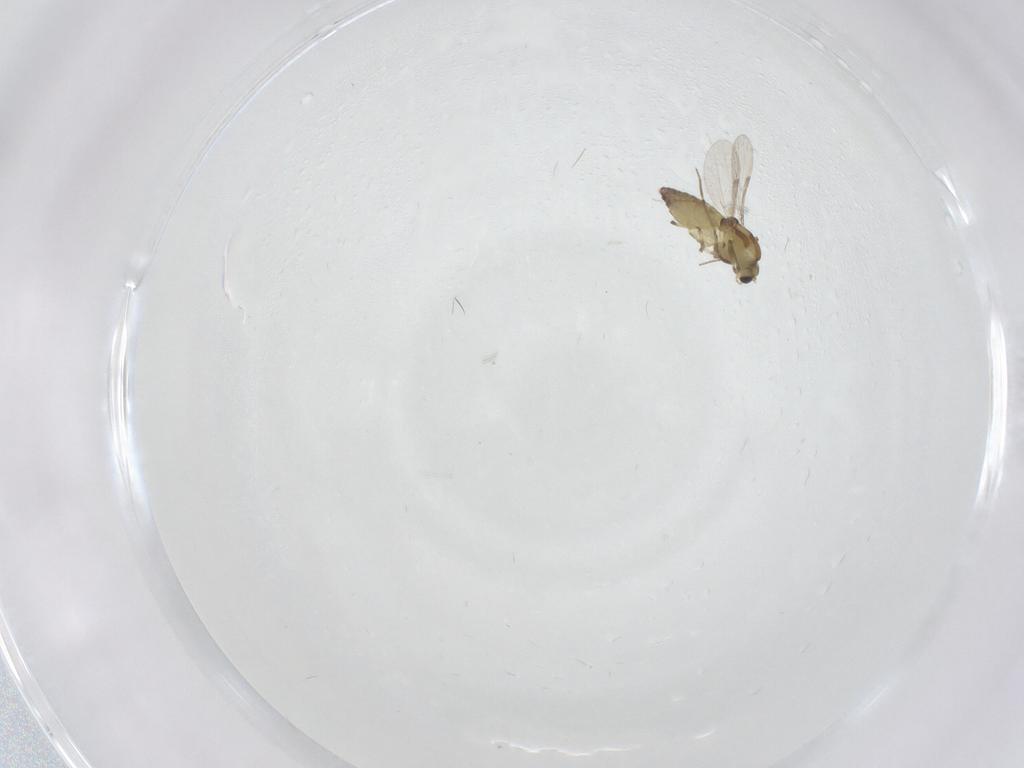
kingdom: Animalia
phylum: Arthropoda
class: Insecta
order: Diptera
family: Chironomidae
